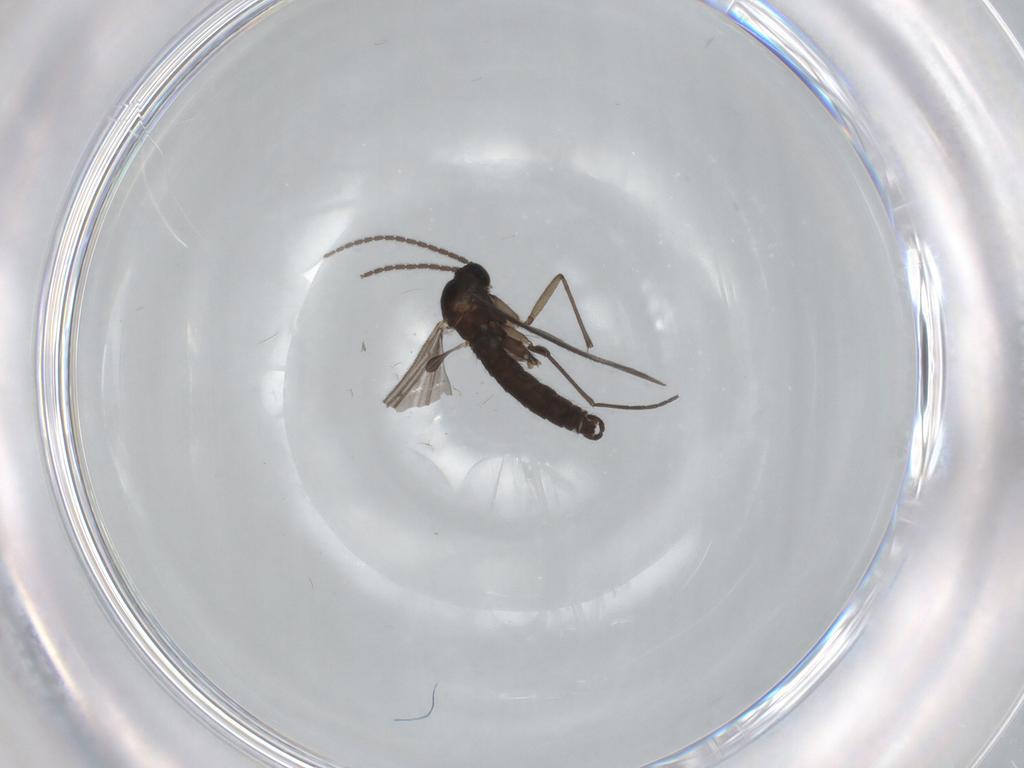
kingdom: Animalia
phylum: Arthropoda
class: Insecta
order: Diptera
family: Sciaridae
